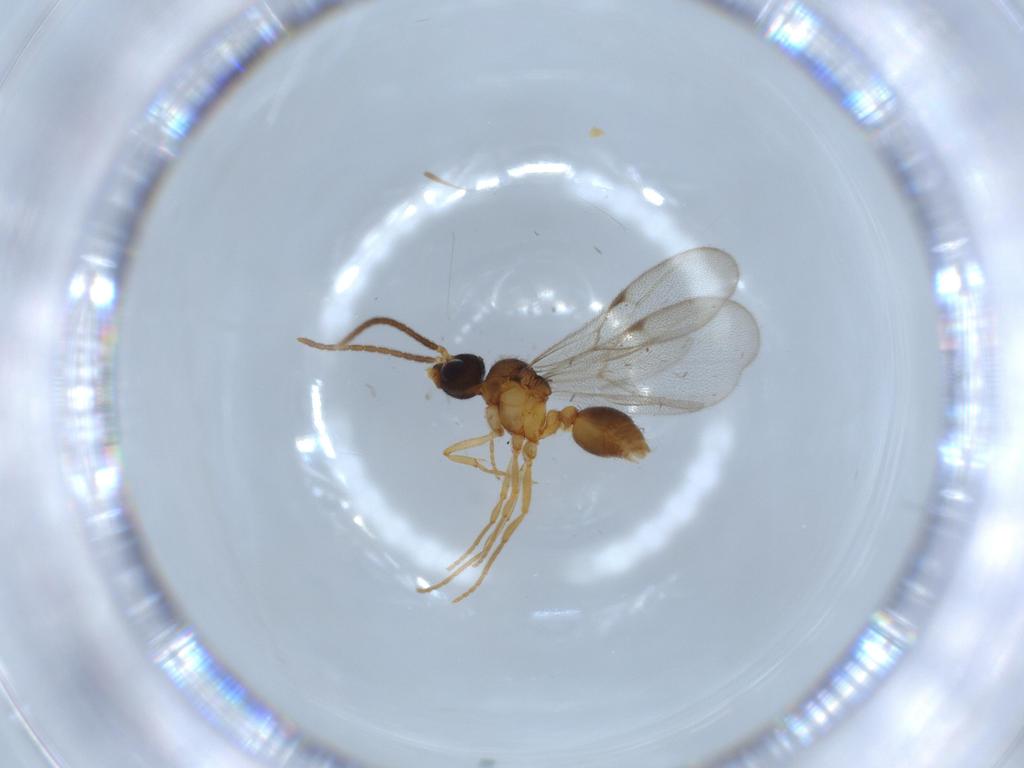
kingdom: Animalia
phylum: Arthropoda
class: Insecta
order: Hymenoptera
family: Formicidae
